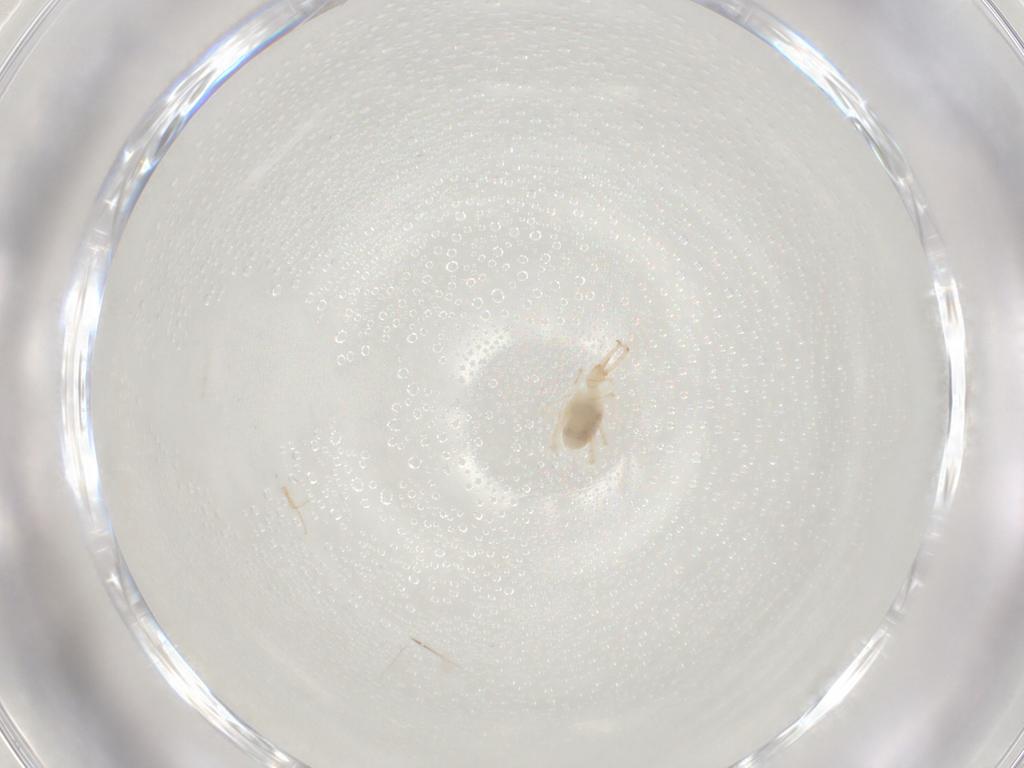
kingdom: Animalia
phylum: Arthropoda
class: Arachnida
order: Trombidiformes
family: Cunaxidae
